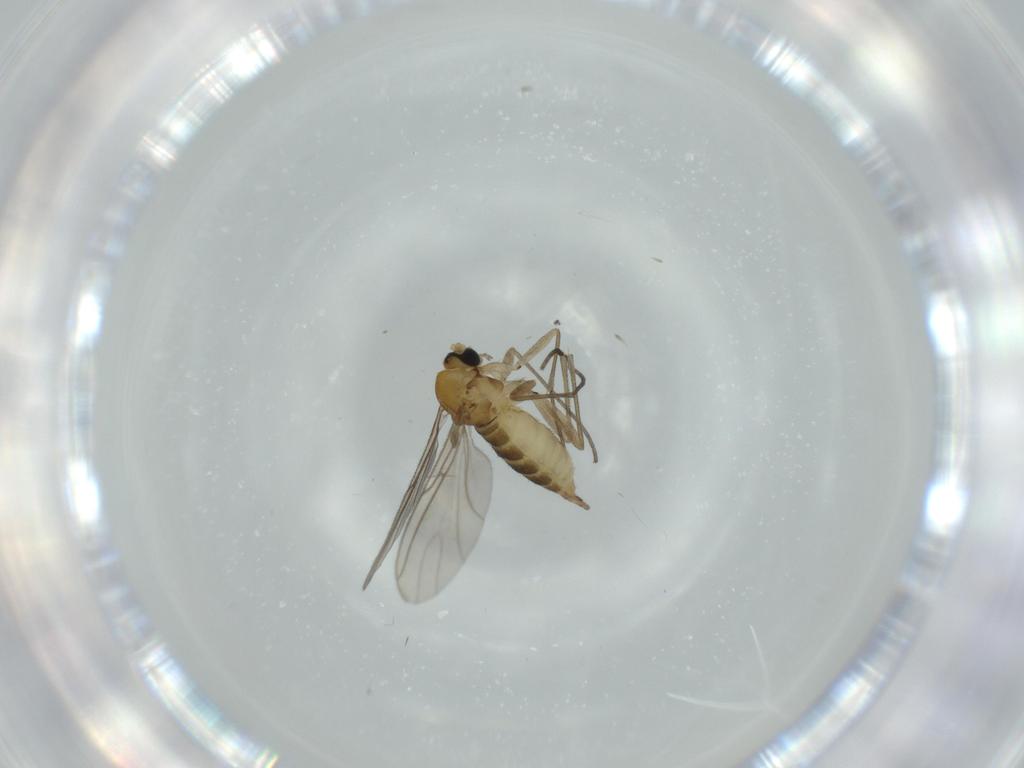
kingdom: Animalia
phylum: Arthropoda
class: Insecta
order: Diptera
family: Sciaridae
